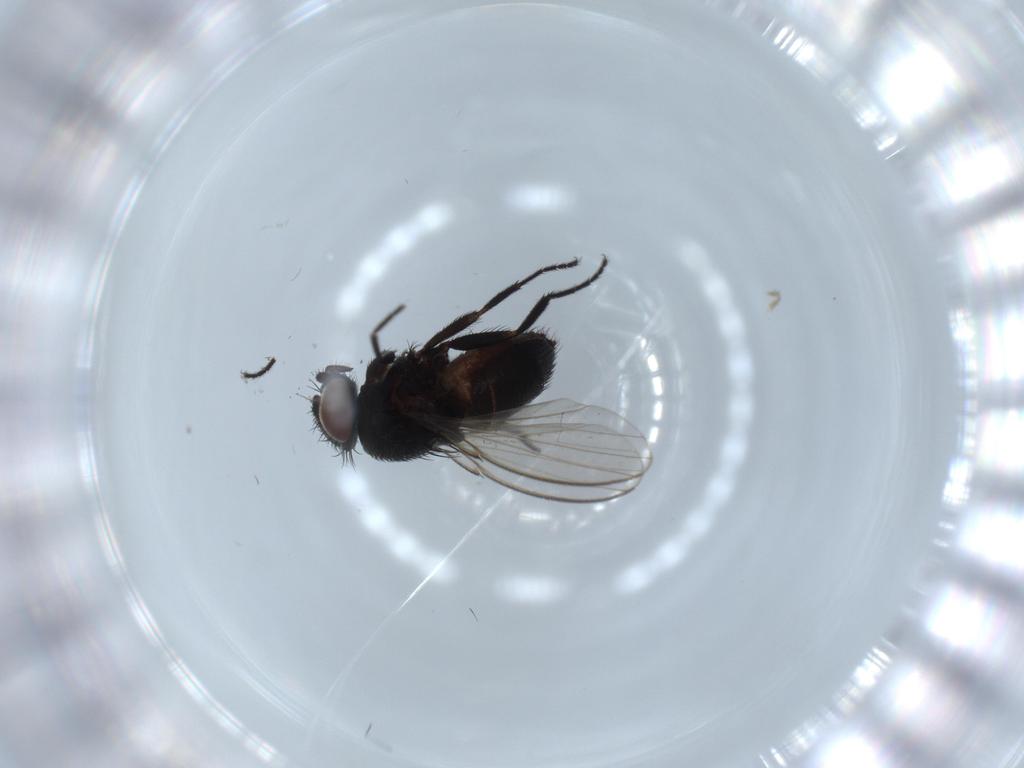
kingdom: Animalia
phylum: Arthropoda
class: Insecta
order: Diptera
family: Milichiidae
